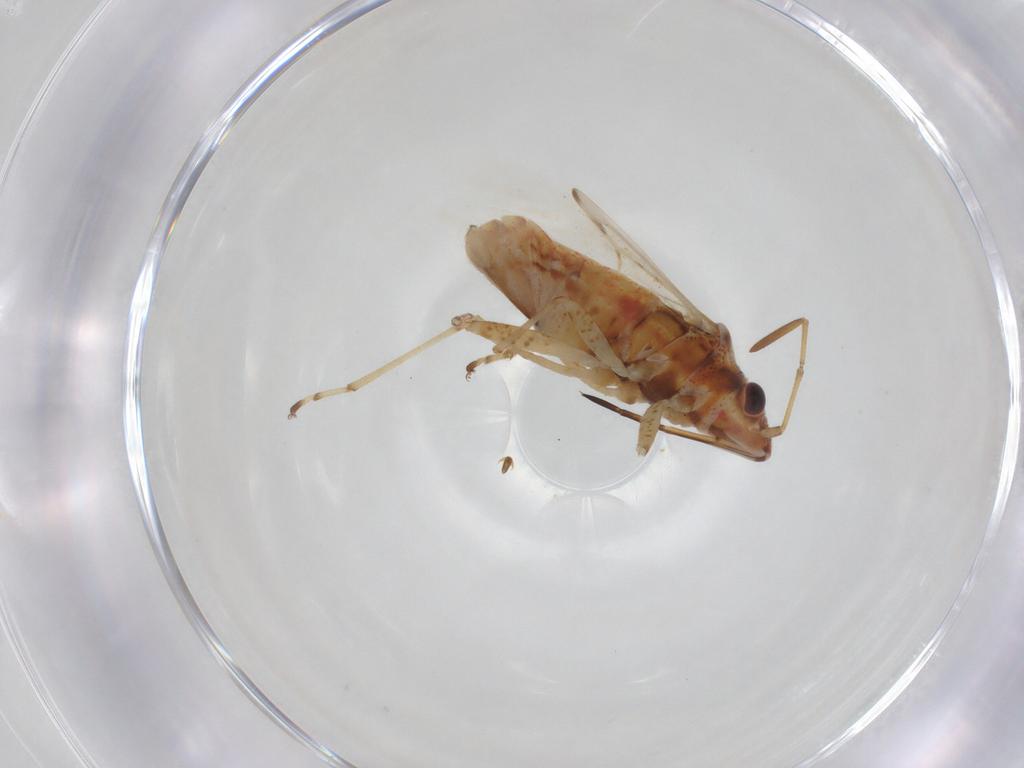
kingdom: Animalia
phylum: Arthropoda
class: Insecta
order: Hemiptera
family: Lygaeidae
